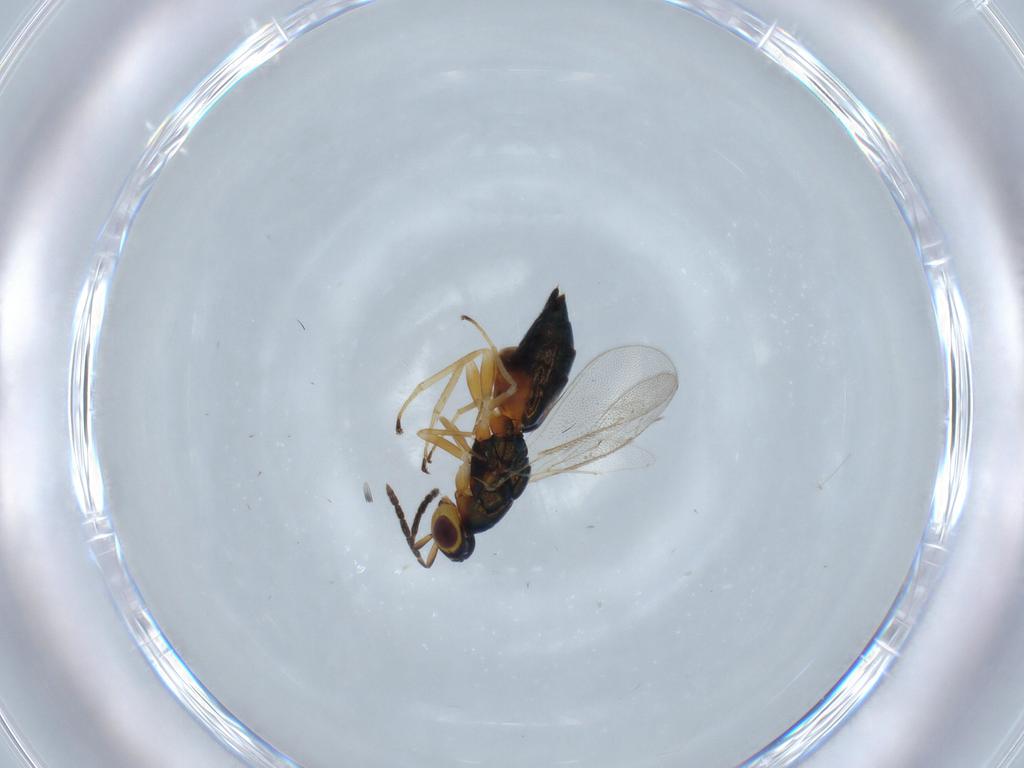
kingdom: Animalia
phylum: Arthropoda
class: Insecta
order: Hymenoptera
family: Eulophidae
